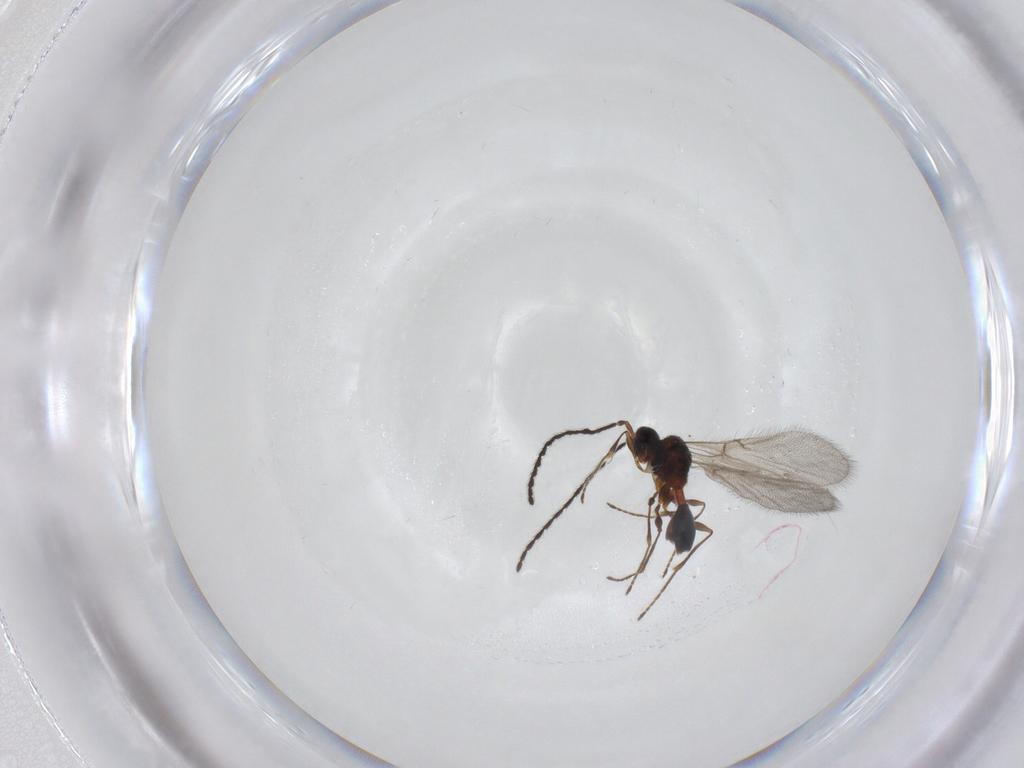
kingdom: Animalia
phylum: Arthropoda
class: Insecta
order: Hymenoptera
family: Diapriidae
